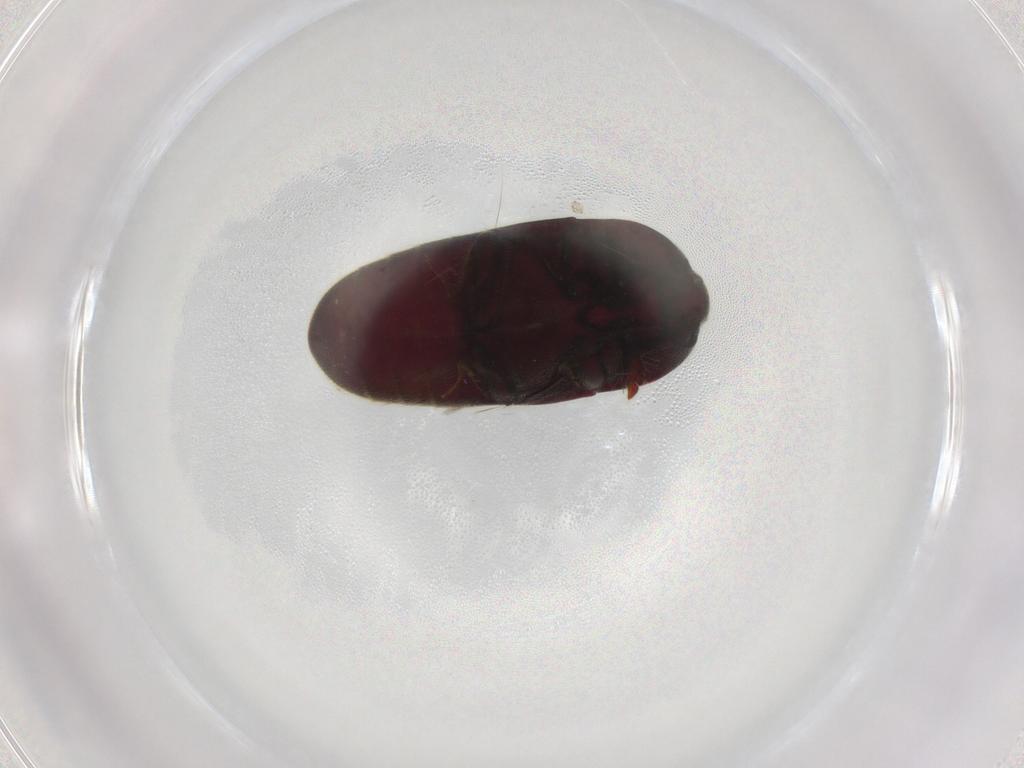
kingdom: Animalia
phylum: Arthropoda
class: Insecta
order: Coleoptera
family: Throscidae
